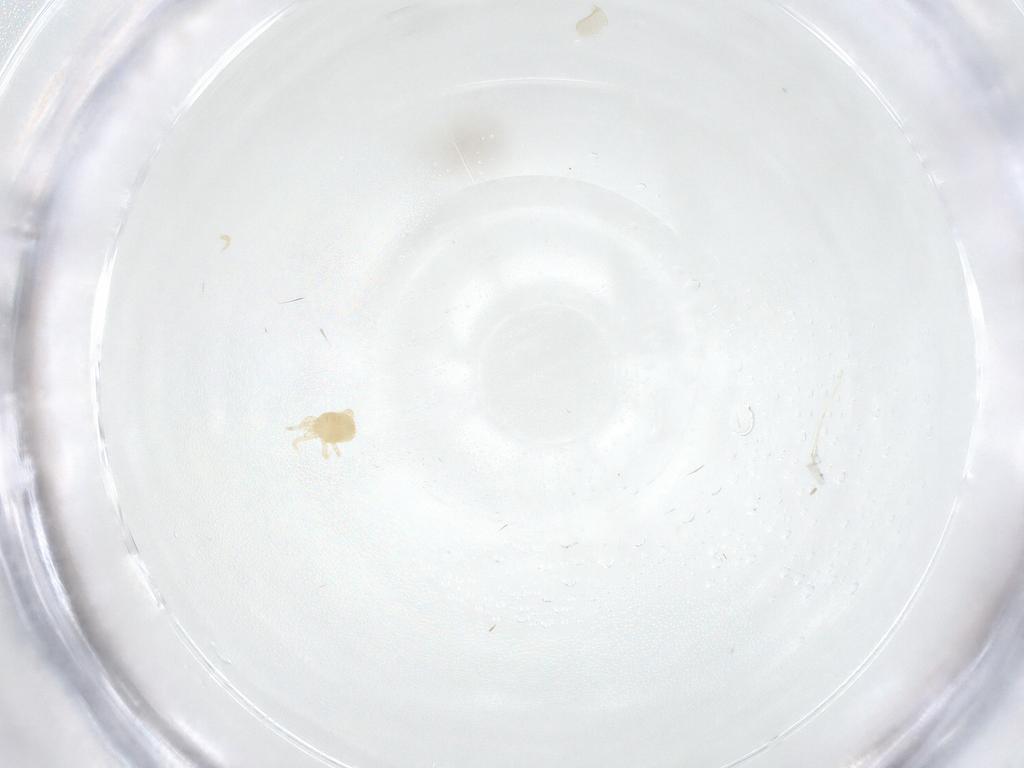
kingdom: Animalia
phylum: Arthropoda
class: Arachnida
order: Mesostigmata
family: Melicharidae
